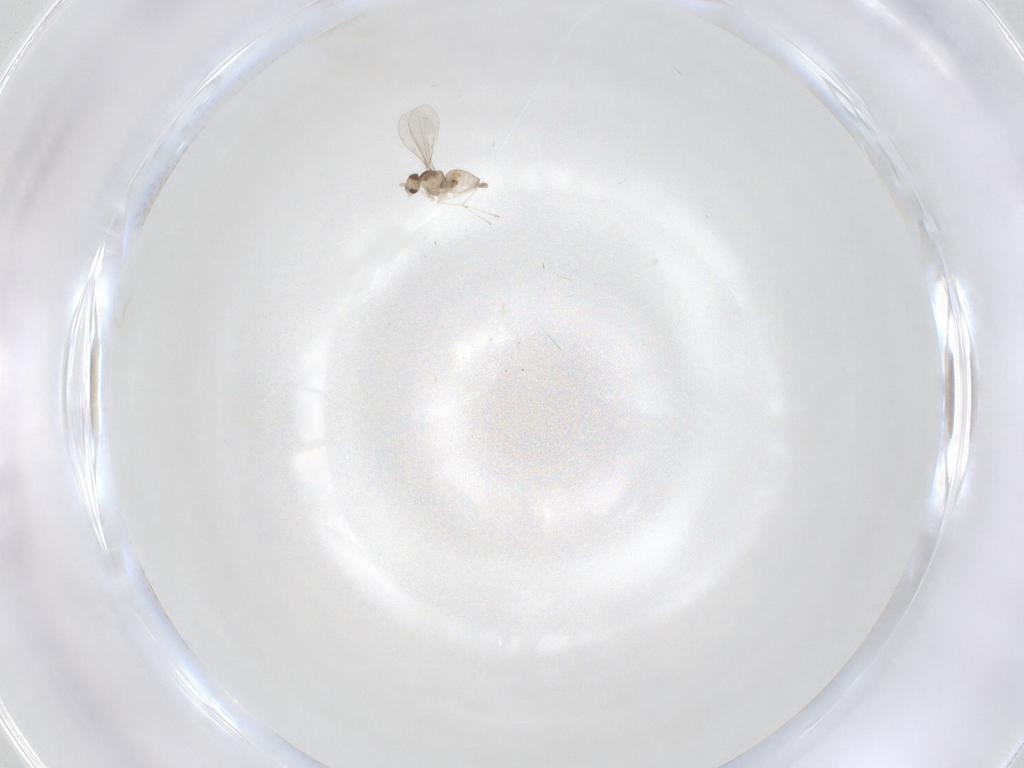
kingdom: Animalia
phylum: Arthropoda
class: Insecta
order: Diptera
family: Cecidomyiidae
